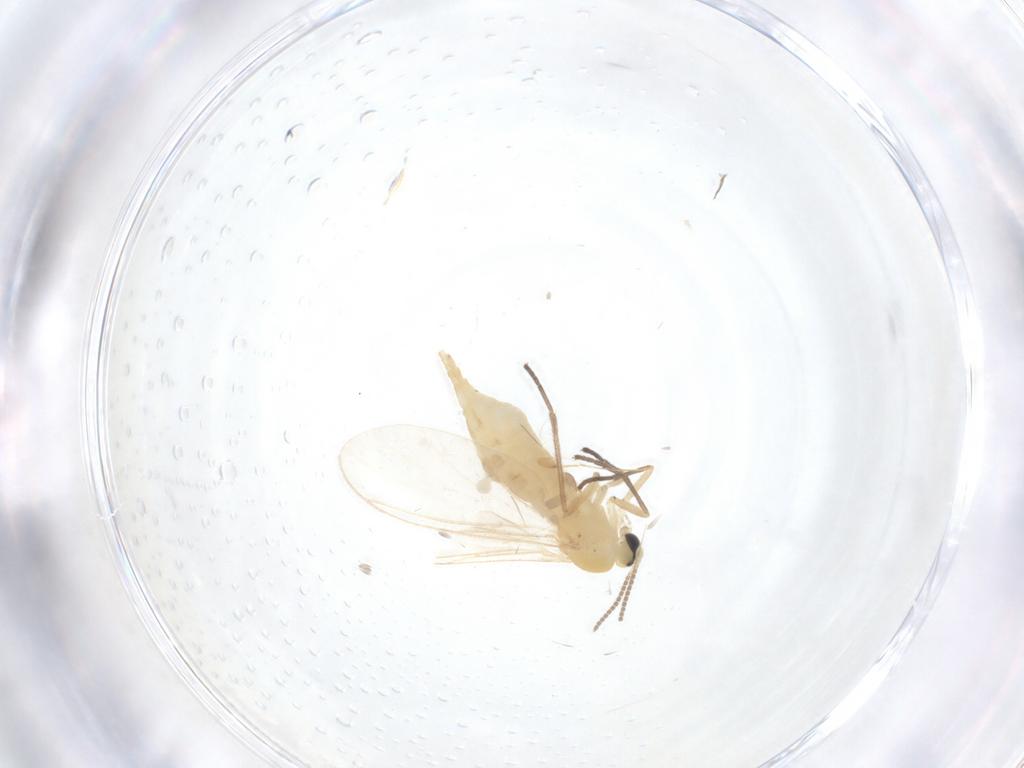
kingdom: Animalia
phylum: Arthropoda
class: Insecta
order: Diptera
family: Sciaridae
